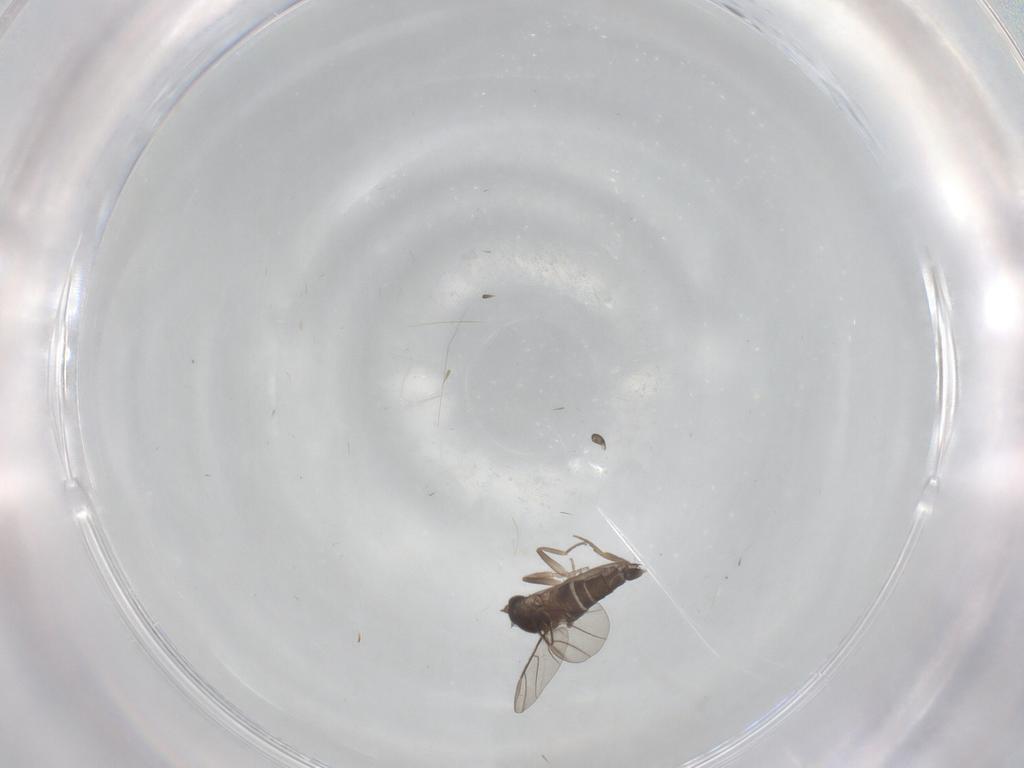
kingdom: Animalia
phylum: Arthropoda
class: Insecta
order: Diptera
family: Phoridae
